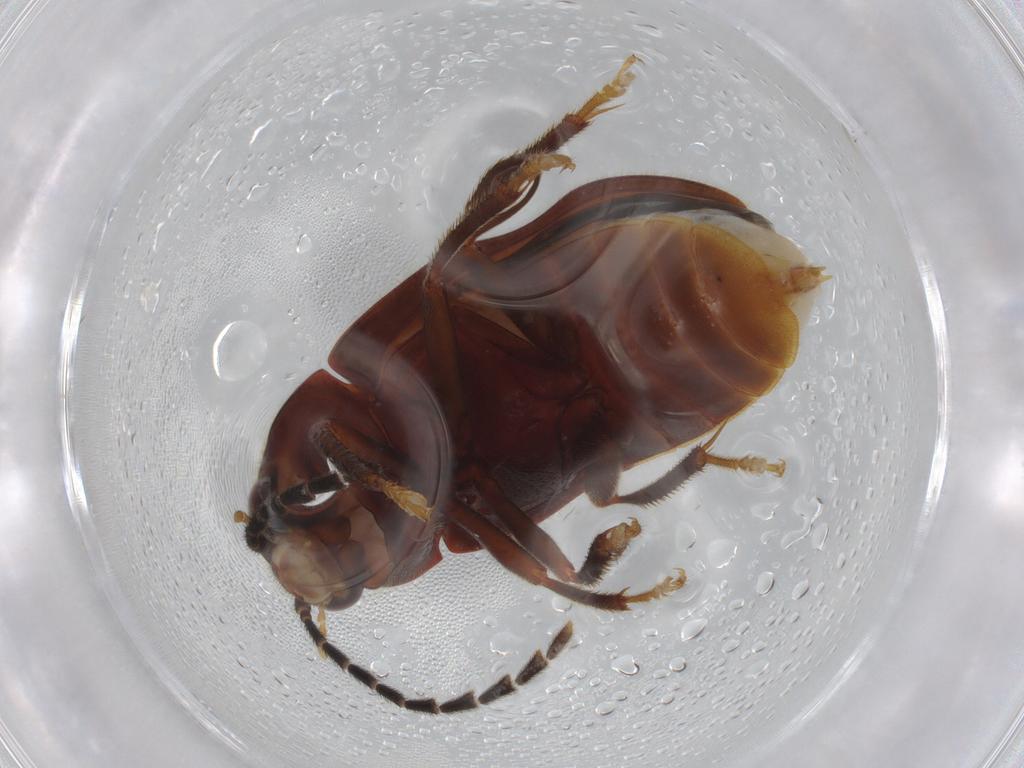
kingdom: Animalia
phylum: Arthropoda
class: Insecta
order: Coleoptera
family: Ptilodactylidae
